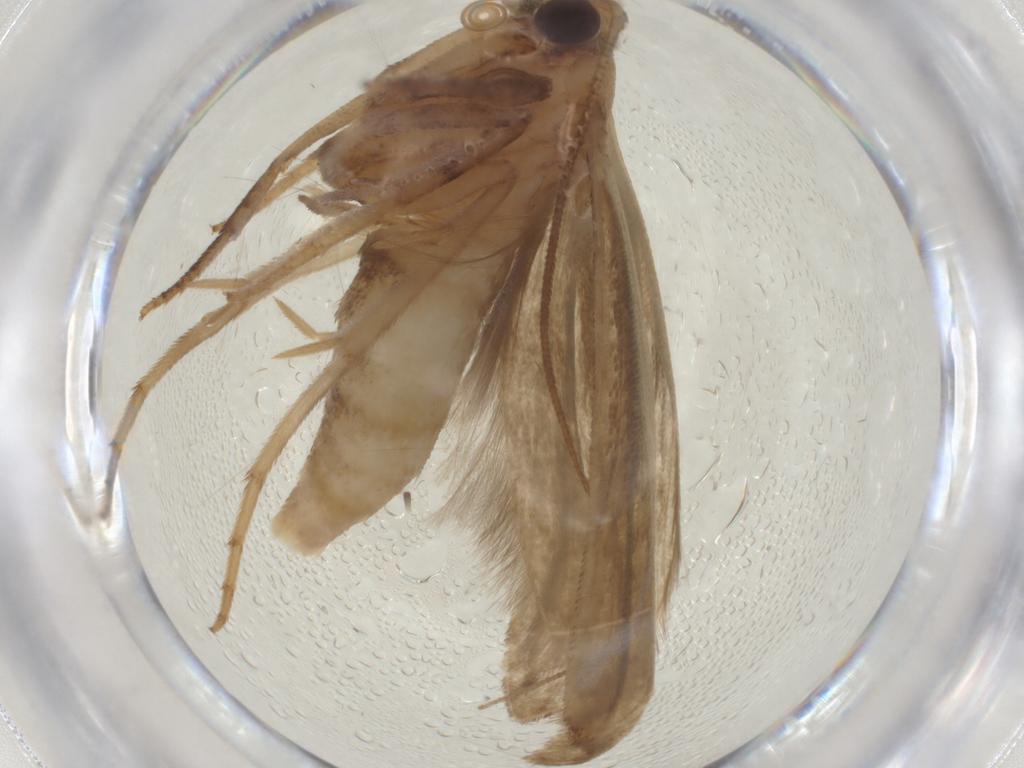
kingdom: Animalia
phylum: Arthropoda
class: Insecta
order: Lepidoptera
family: Yponomeutidae
